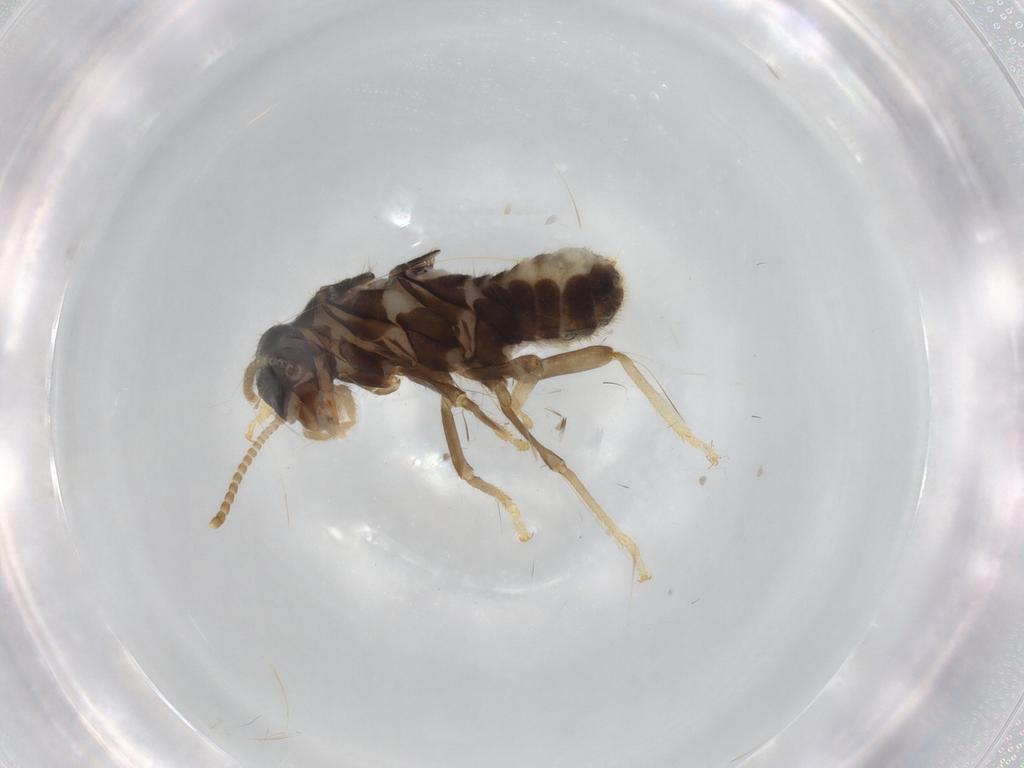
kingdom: Animalia
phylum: Arthropoda
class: Insecta
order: Blattodea
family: Termitidae
